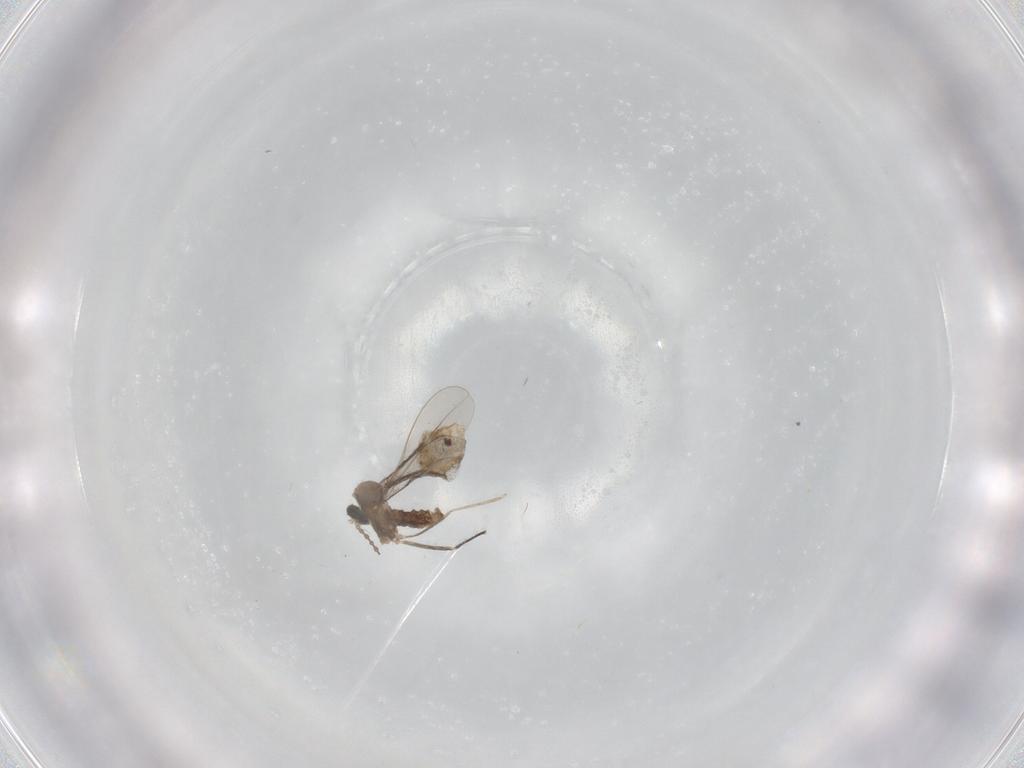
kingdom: Animalia
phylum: Arthropoda
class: Insecta
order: Diptera
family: Cecidomyiidae
